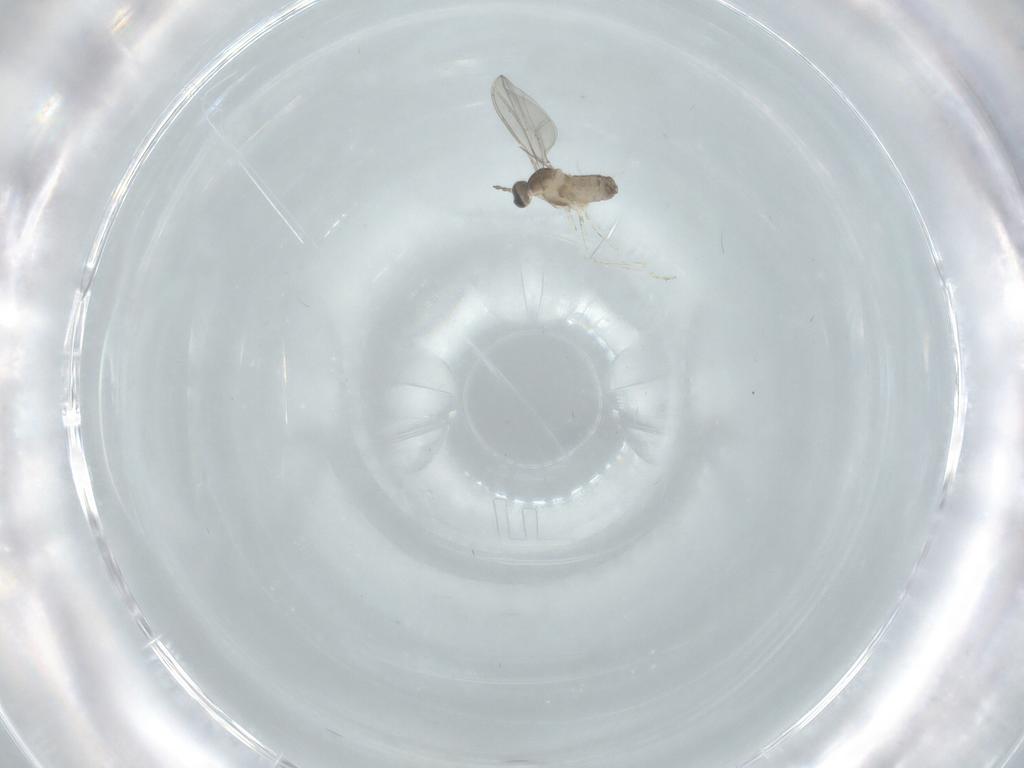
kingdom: Animalia
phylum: Arthropoda
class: Insecta
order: Diptera
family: Cecidomyiidae
